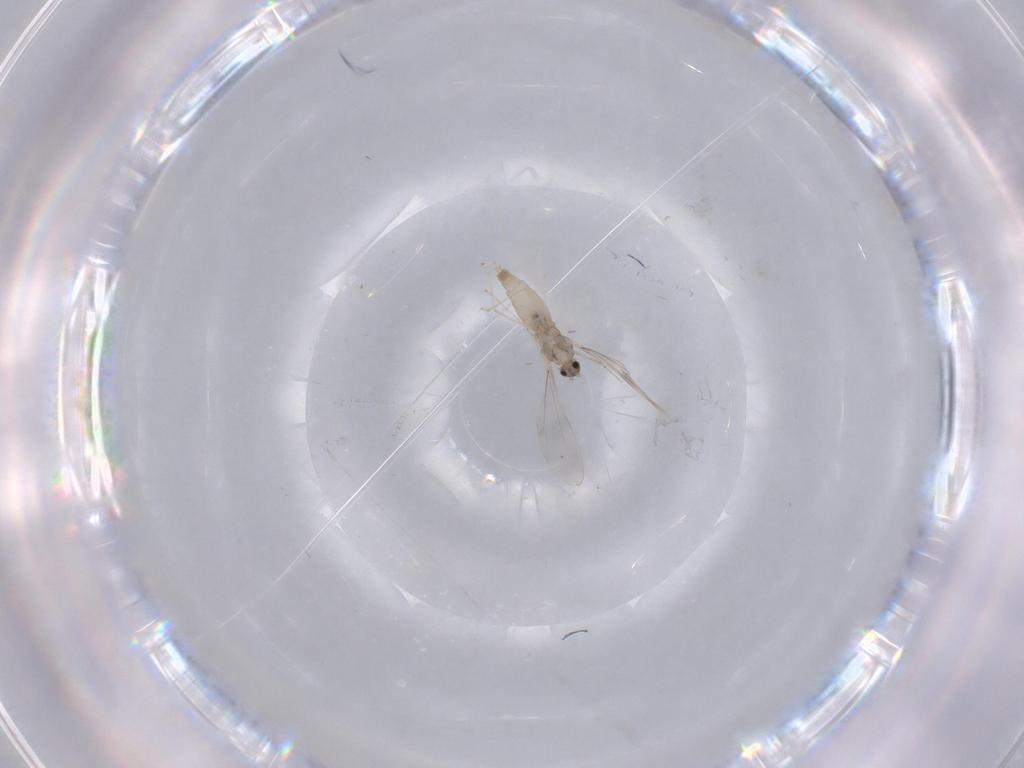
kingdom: Animalia
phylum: Arthropoda
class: Insecta
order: Diptera
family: Cecidomyiidae
